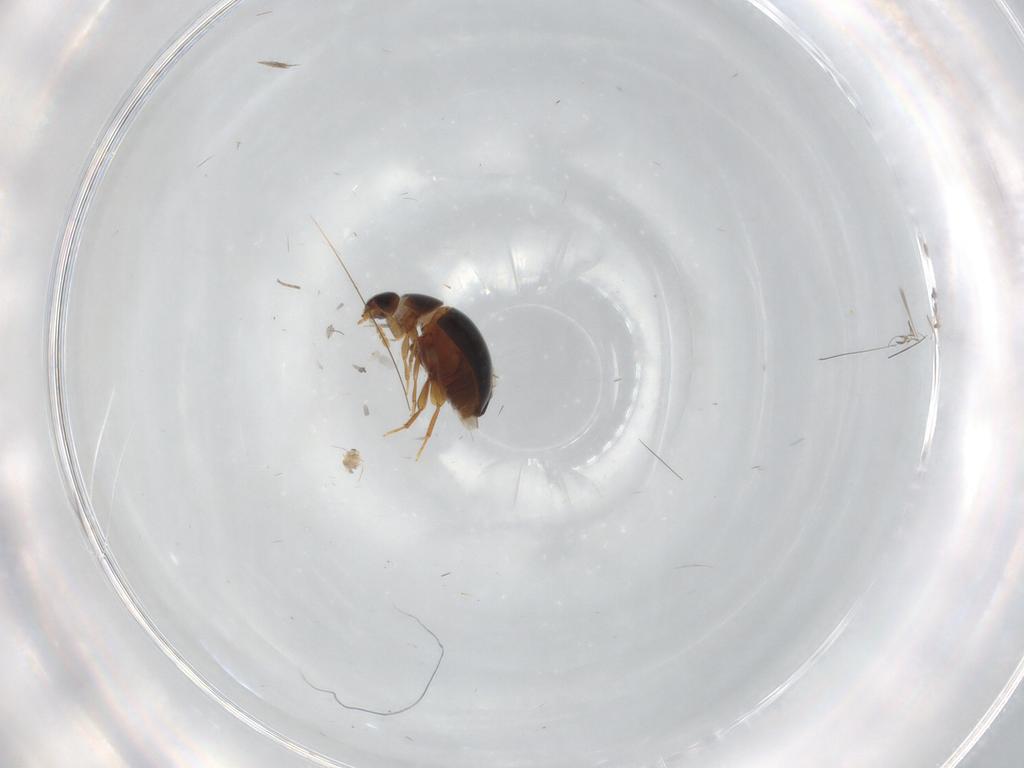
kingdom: Animalia
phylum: Arthropoda
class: Insecta
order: Coleoptera
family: Phalacridae
